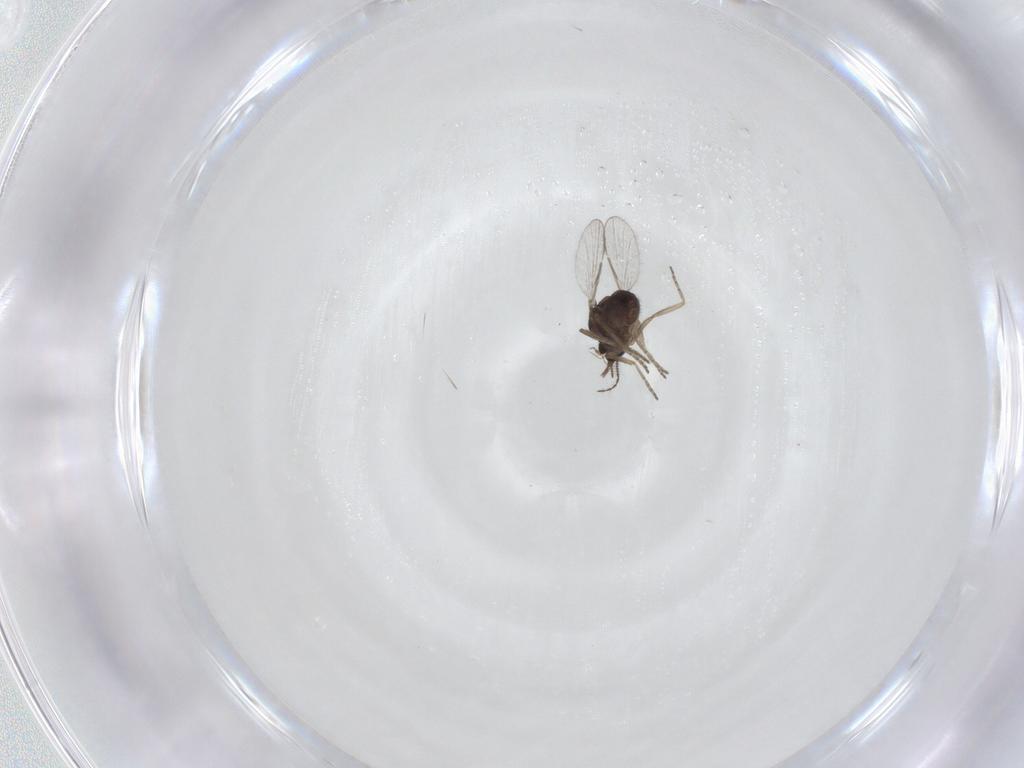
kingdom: Animalia
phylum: Arthropoda
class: Insecta
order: Diptera
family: Ceratopogonidae
